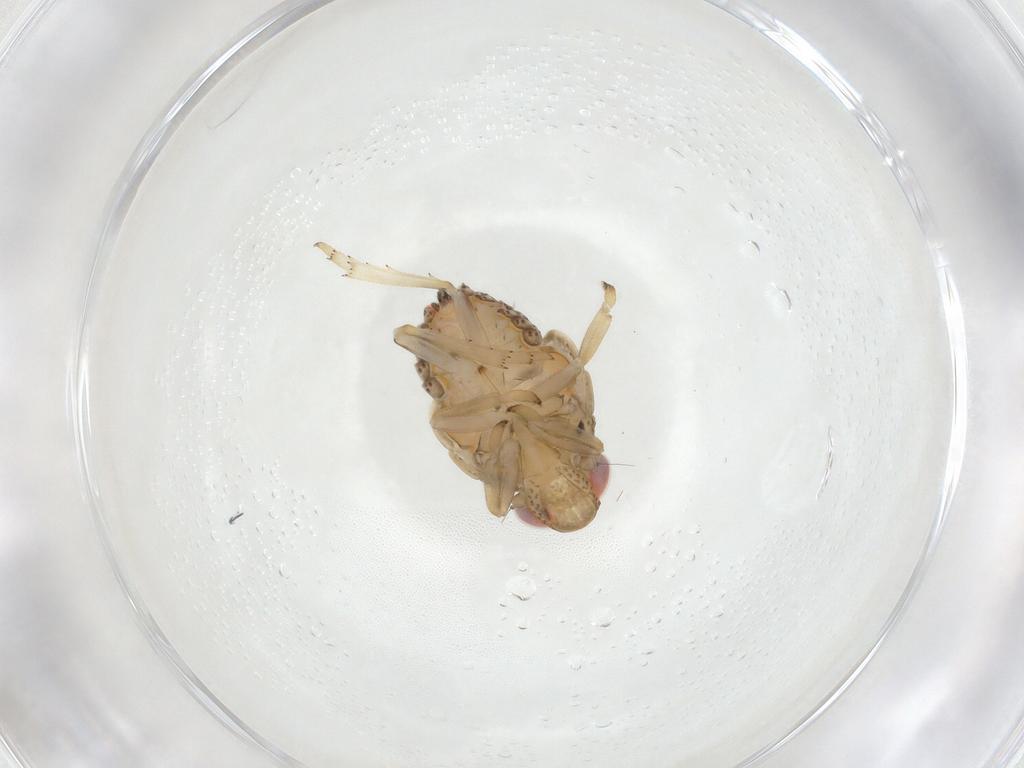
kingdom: Animalia
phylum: Arthropoda
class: Insecta
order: Hemiptera
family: Issidae
